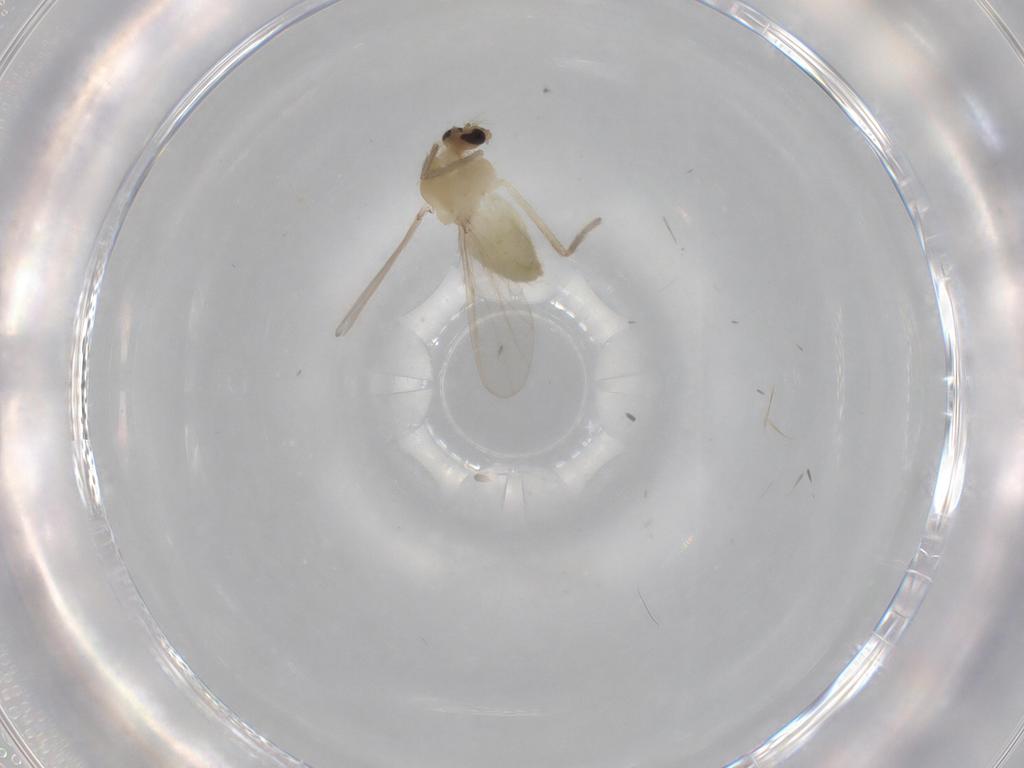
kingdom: Animalia
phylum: Arthropoda
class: Insecta
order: Diptera
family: Chironomidae
